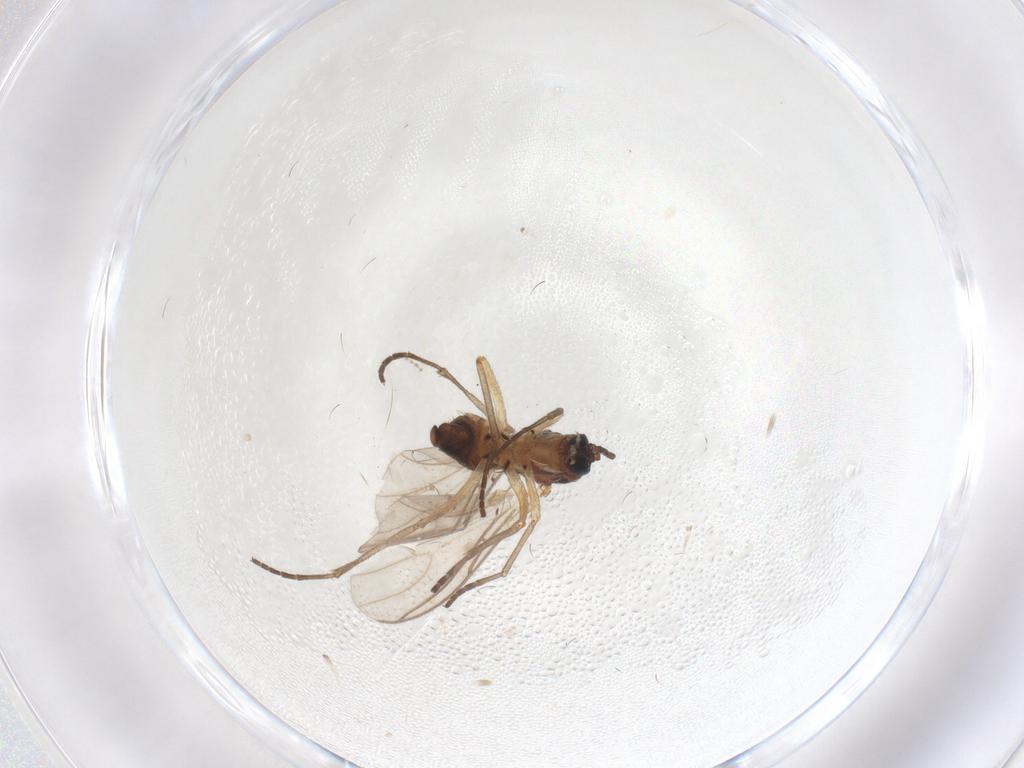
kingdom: Animalia
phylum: Arthropoda
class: Insecta
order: Diptera
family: Sciaridae
